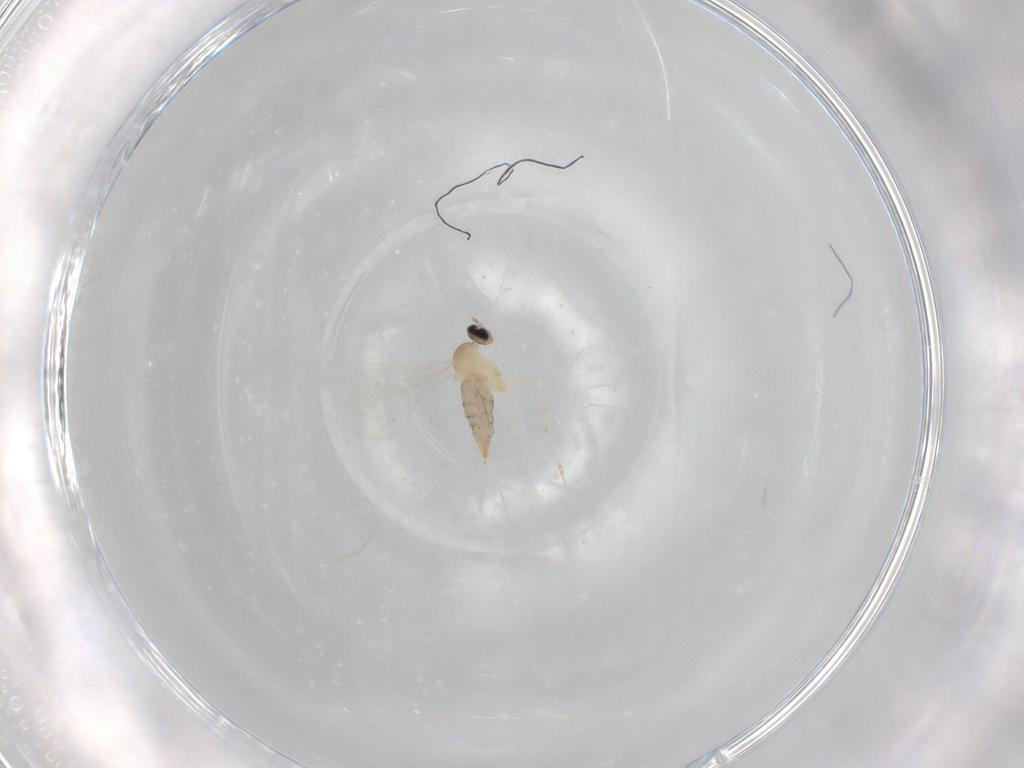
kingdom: Animalia
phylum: Arthropoda
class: Insecta
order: Diptera
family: Cecidomyiidae
